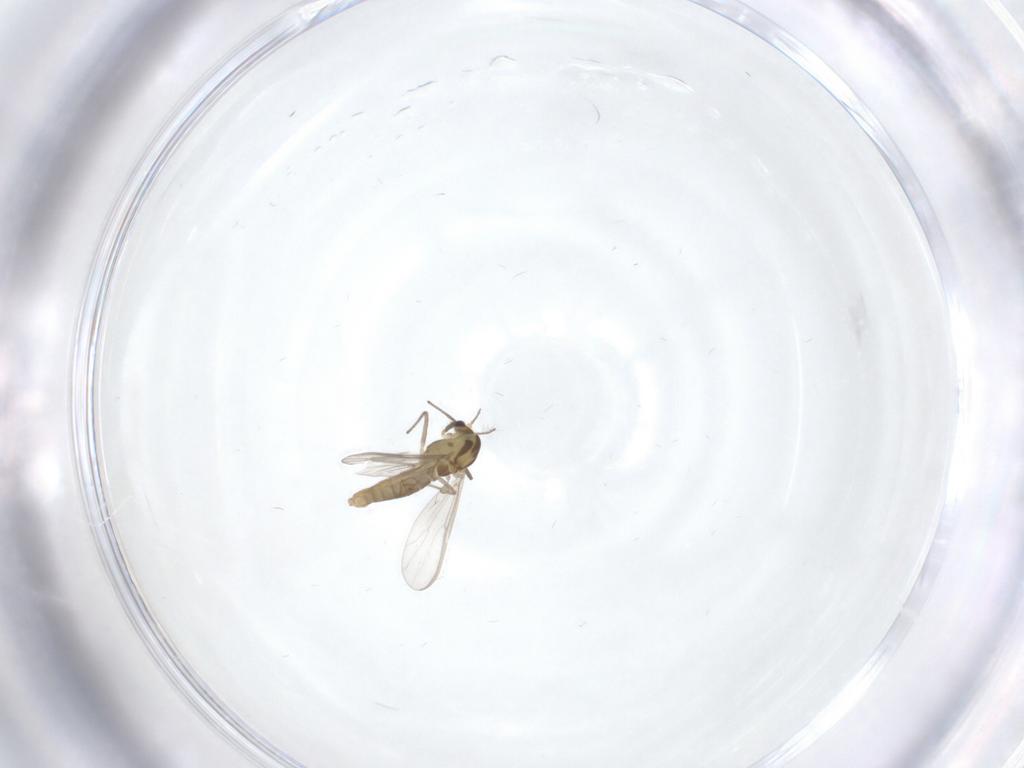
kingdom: Animalia
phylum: Arthropoda
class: Insecta
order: Diptera
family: Chironomidae
